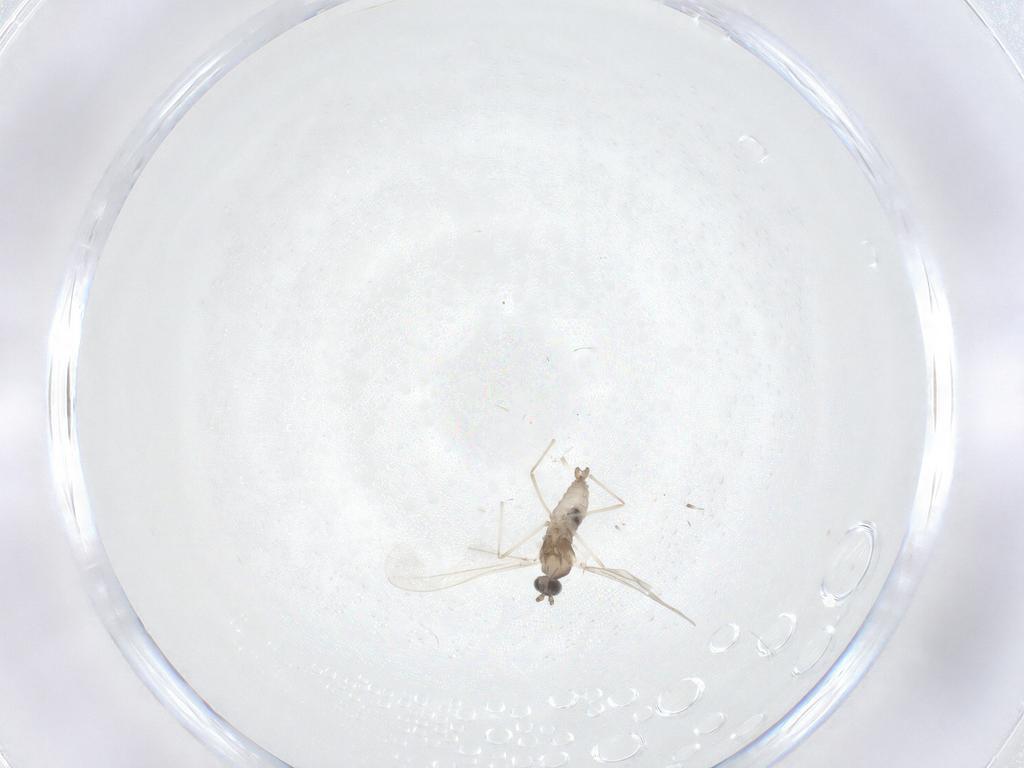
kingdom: Animalia
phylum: Arthropoda
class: Insecta
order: Diptera
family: Cecidomyiidae
